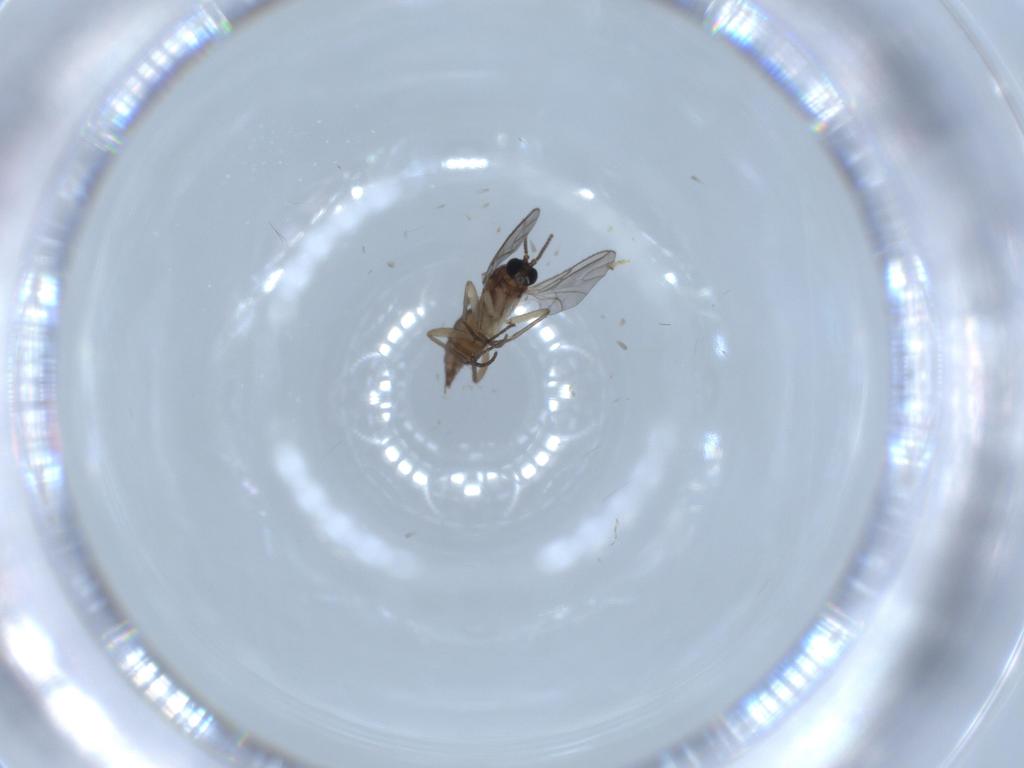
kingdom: Animalia
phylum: Arthropoda
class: Insecta
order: Diptera
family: Sciaridae
